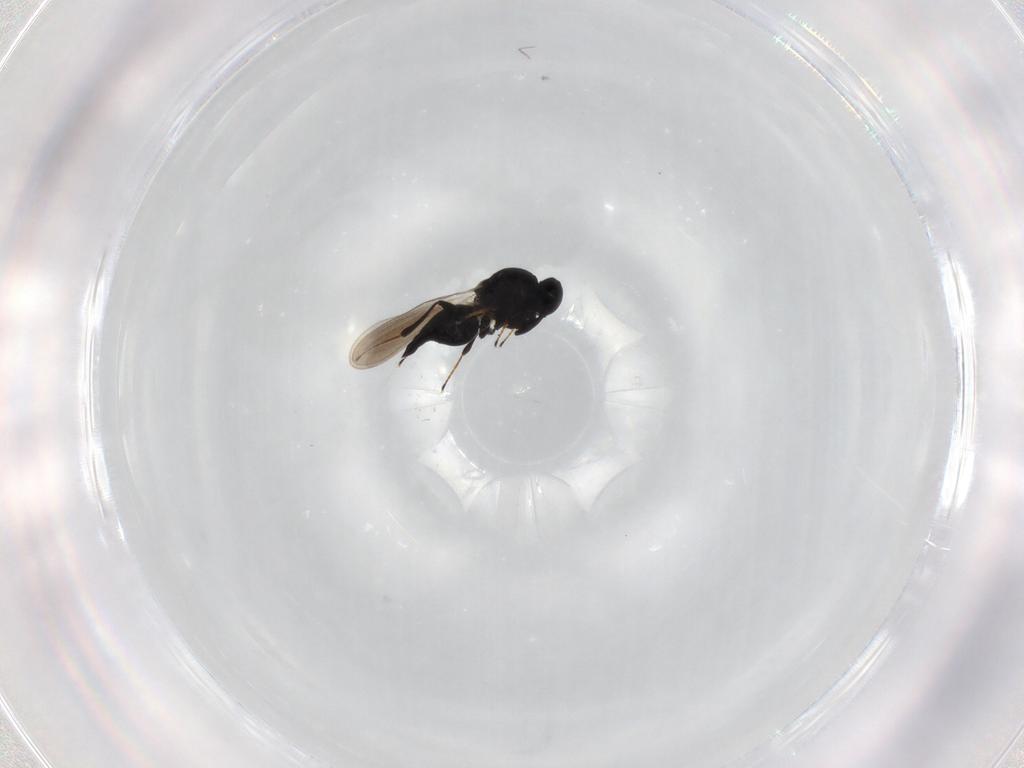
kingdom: Animalia
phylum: Arthropoda
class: Insecta
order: Hymenoptera
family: Platygastridae
